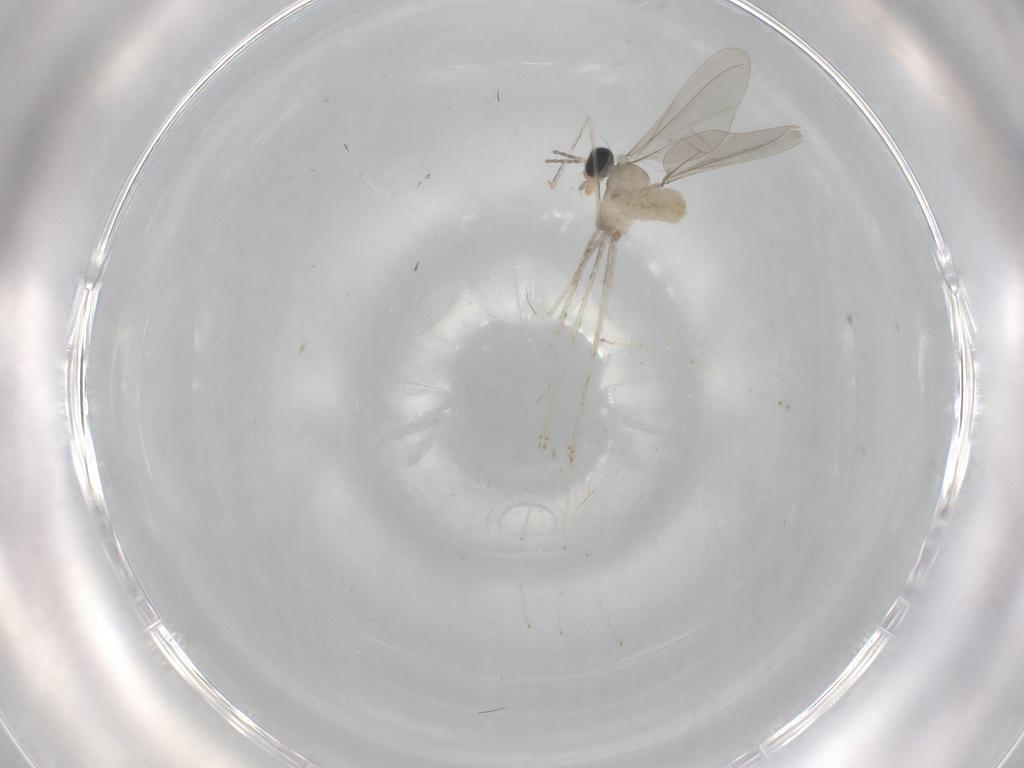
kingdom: Animalia
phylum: Arthropoda
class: Insecta
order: Diptera
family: Cecidomyiidae
